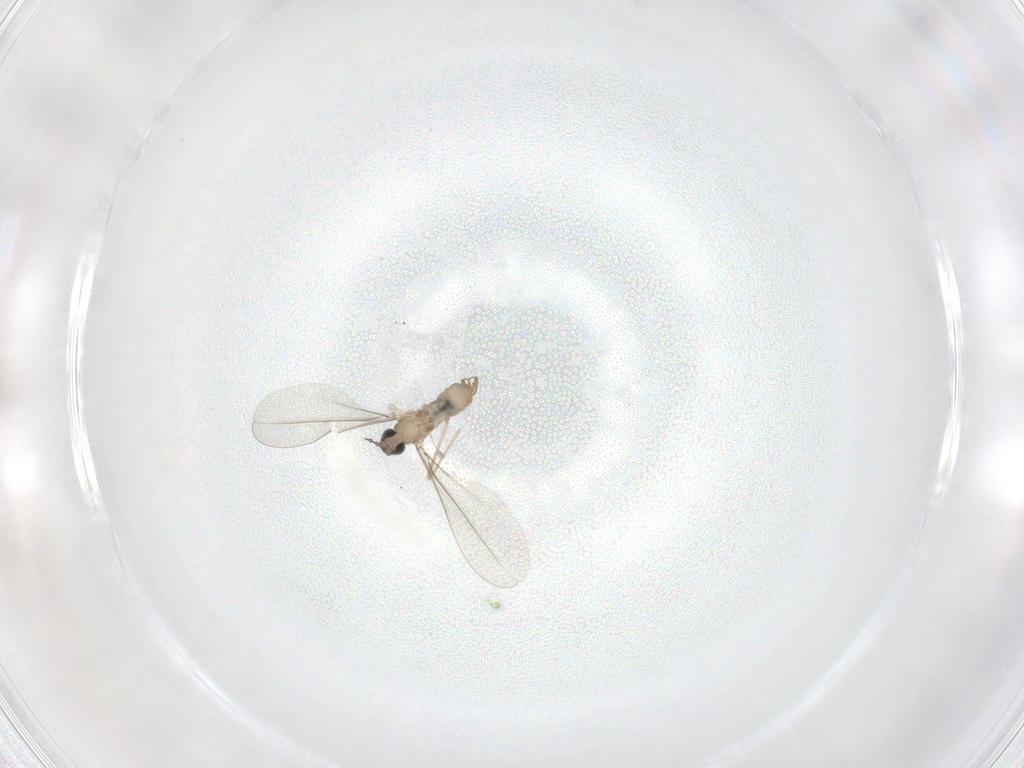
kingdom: Animalia
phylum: Arthropoda
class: Insecta
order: Diptera
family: Cecidomyiidae
